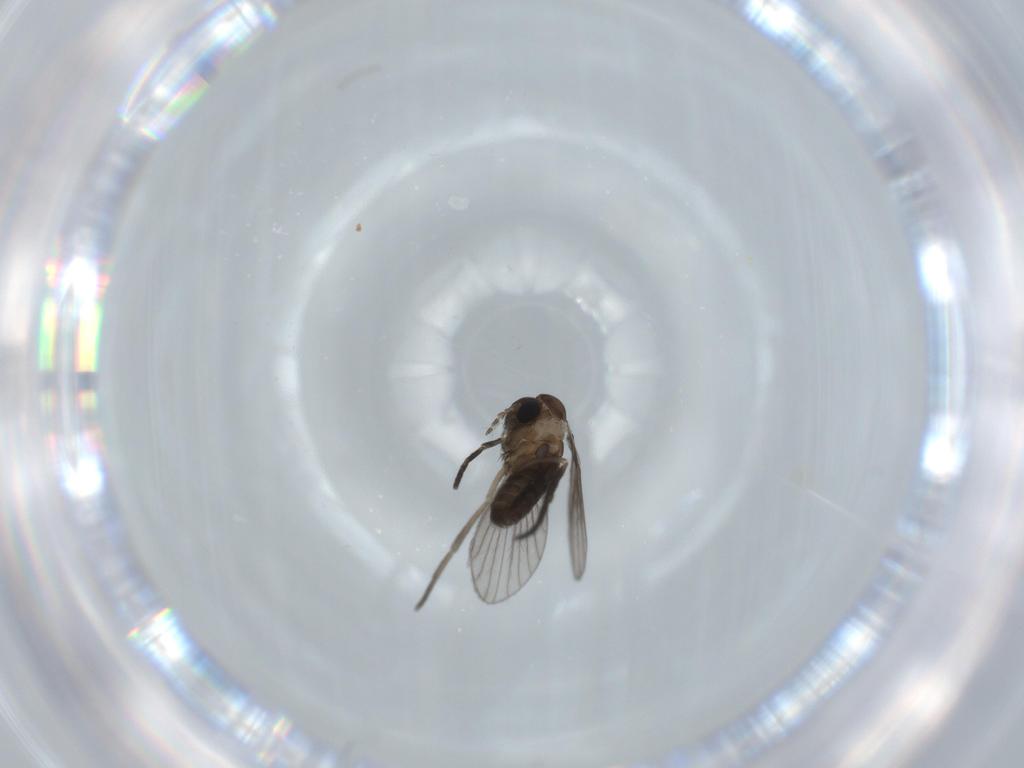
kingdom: Animalia
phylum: Arthropoda
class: Insecta
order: Diptera
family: Psychodidae
